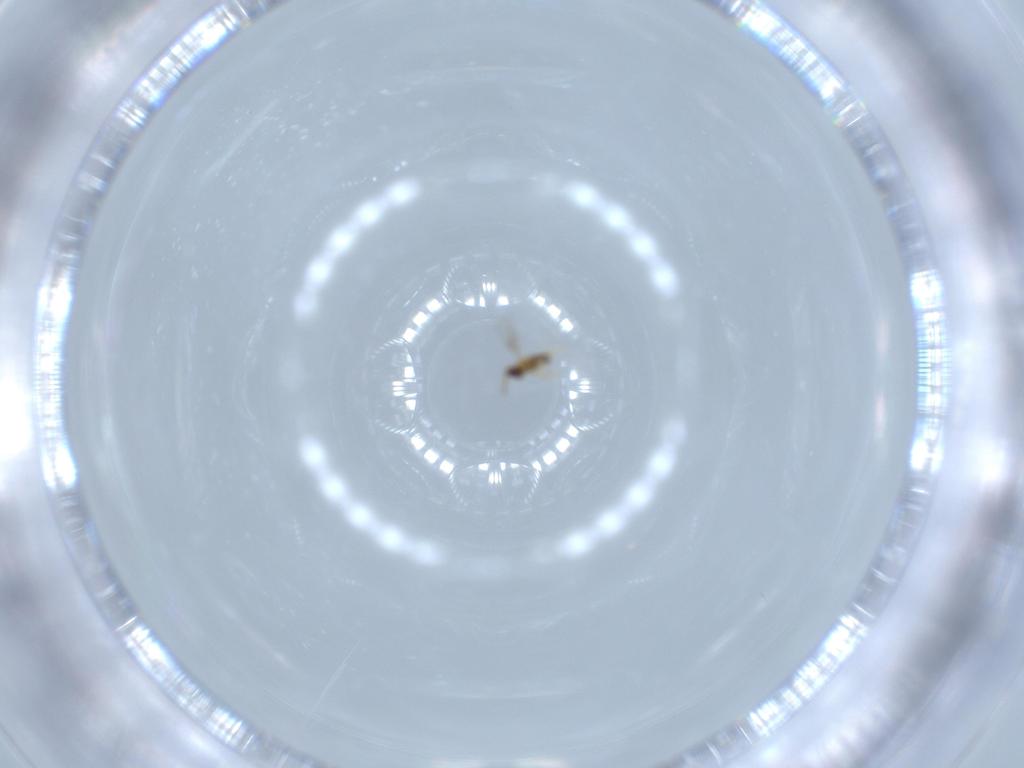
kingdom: Animalia
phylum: Arthropoda
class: Insecta
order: Hymenoptera
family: Aphelinidae
